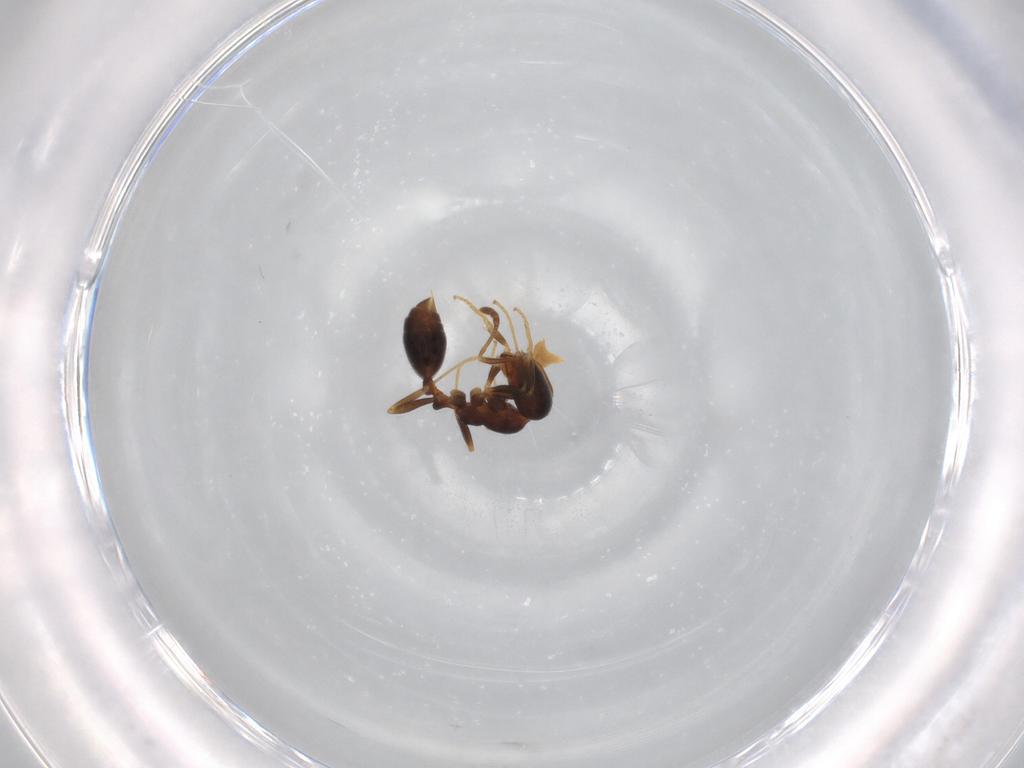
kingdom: Animalia
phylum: Arthropoda
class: Insecta
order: Hymenoptera
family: Formicidae
